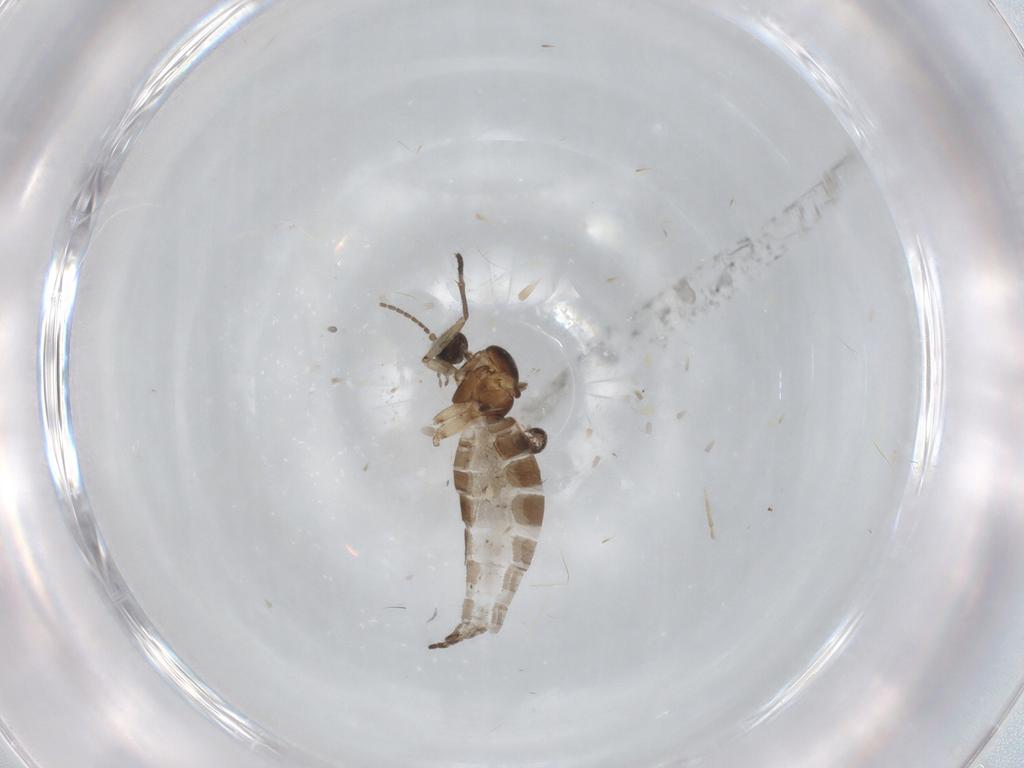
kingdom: Animalia
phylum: Arthropoda
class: Insecta
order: Diptera
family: Sciaridae
